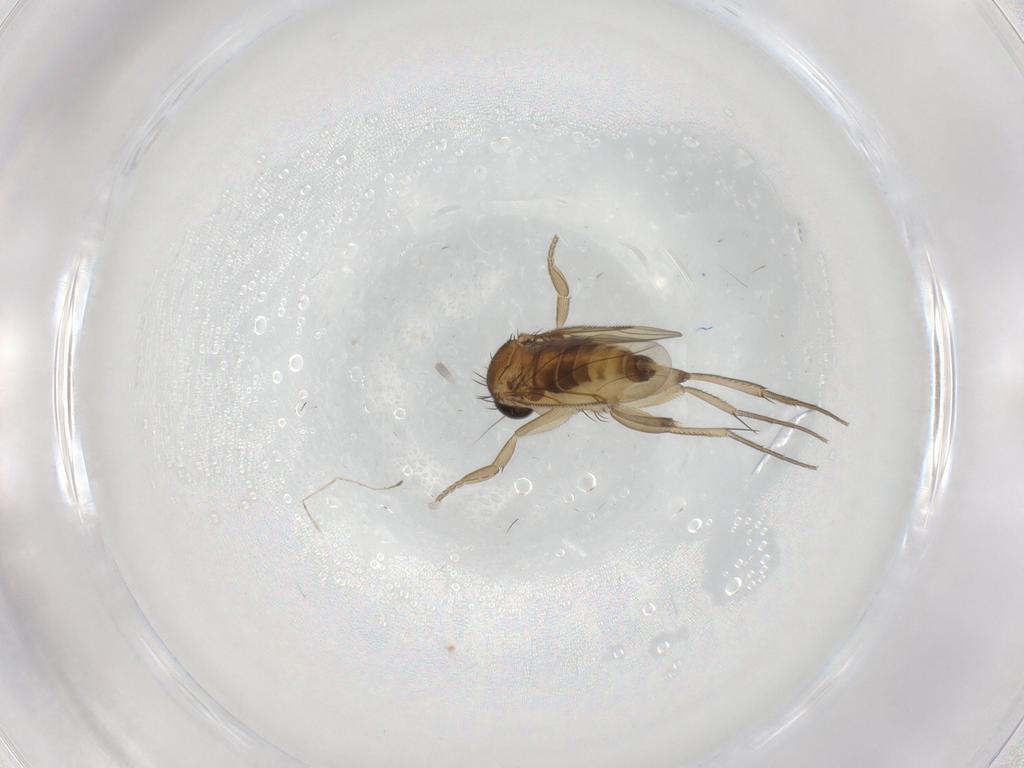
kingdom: Animalia
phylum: Arthropoda
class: Insecta
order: Diptera
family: Phoridae
